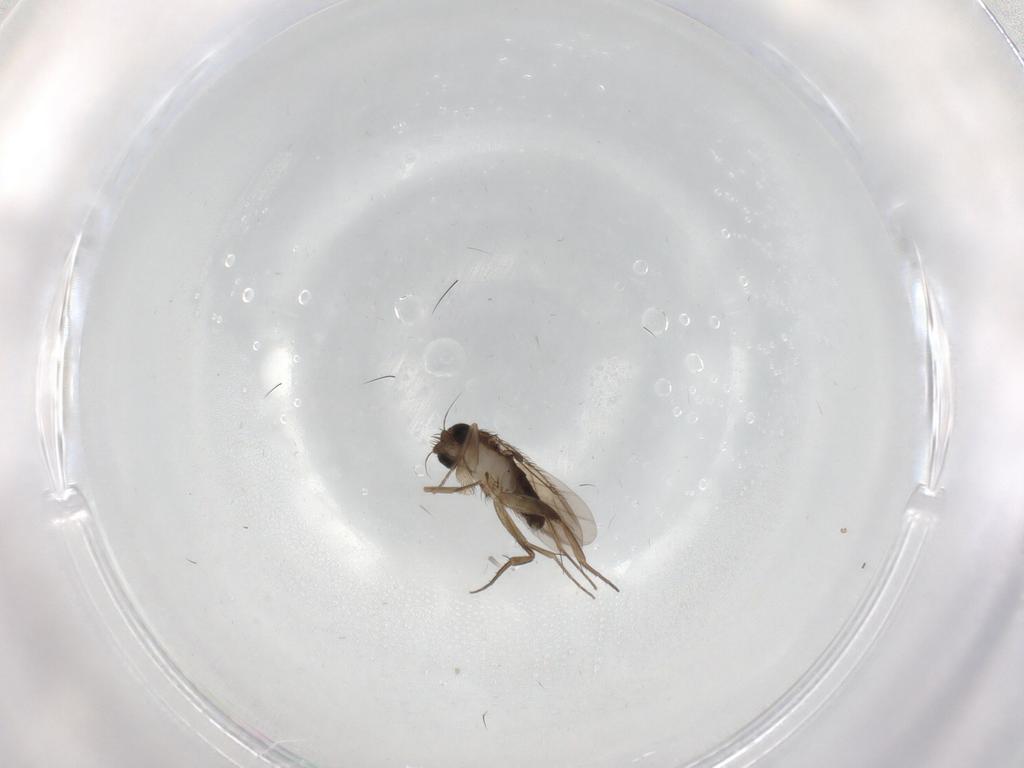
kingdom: Animalia
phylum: Arthropoda
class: Insecta
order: Diptera
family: Phoridae
